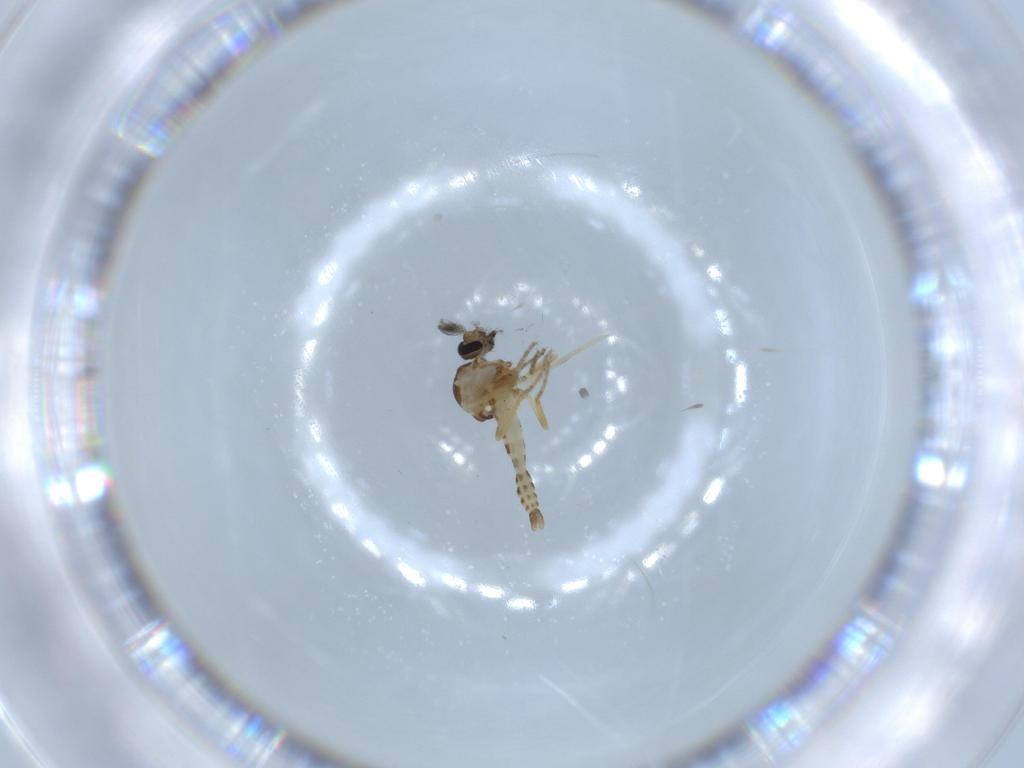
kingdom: Animalia
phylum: Arthropoda
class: Insecta
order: Diptera
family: Ceratopogonidae
